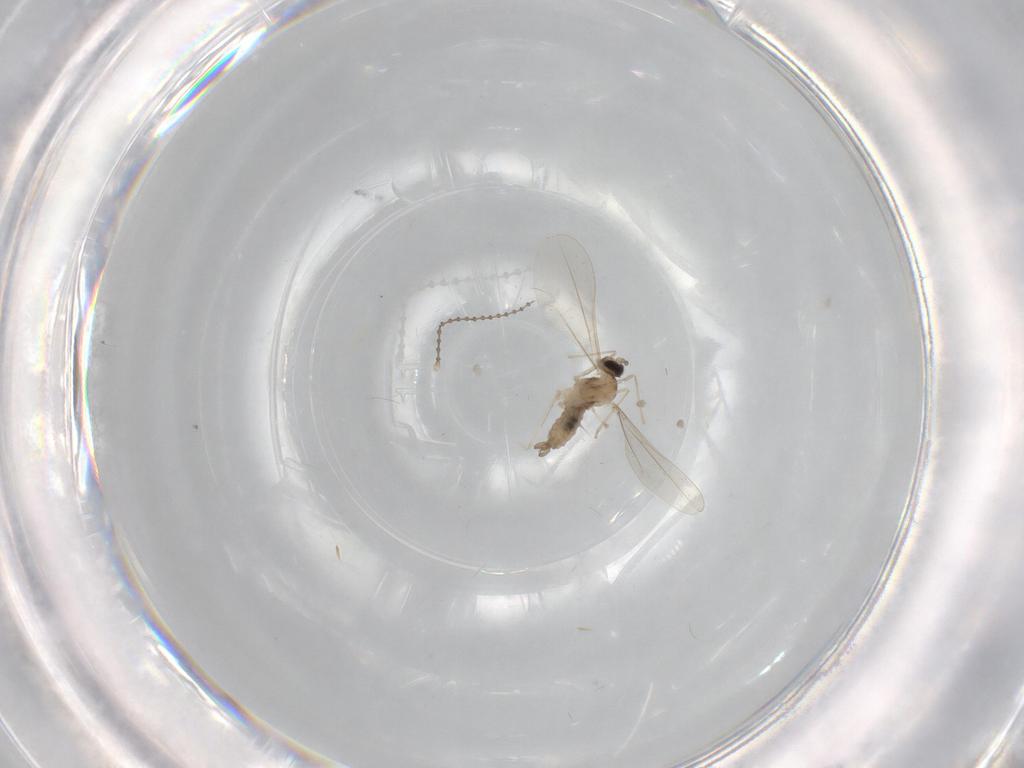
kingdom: Animalia
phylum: Arthropoda
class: Insecta
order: Diptera
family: Cecidomyiidae
